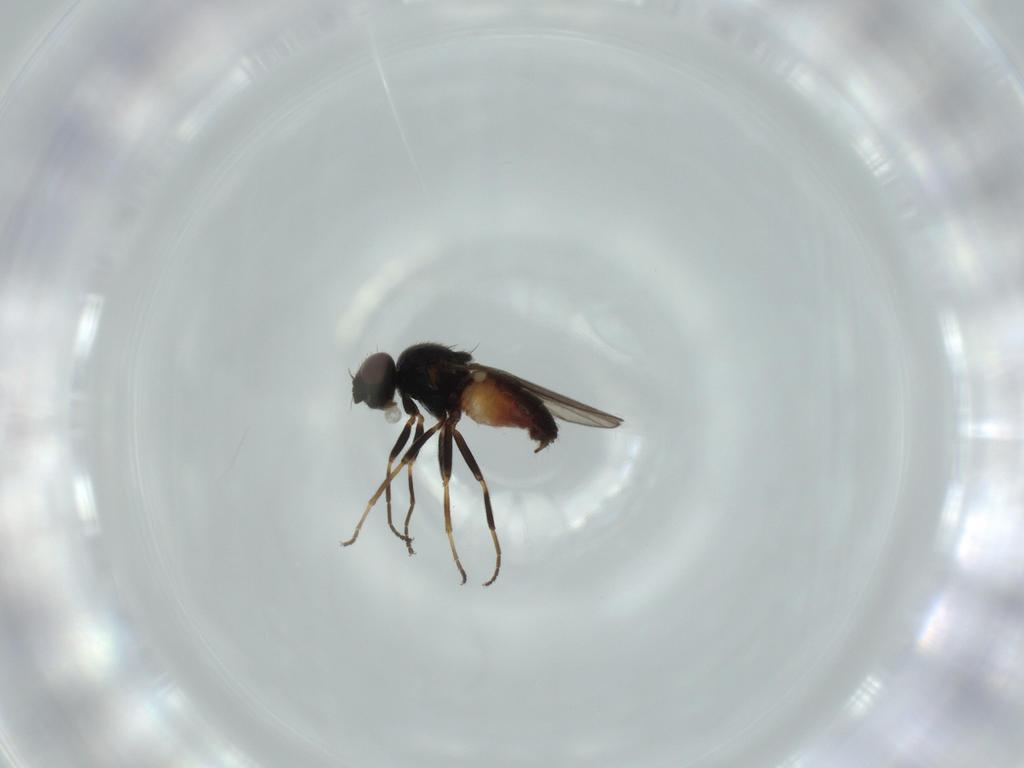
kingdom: Animalia
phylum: Arthropoda
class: Insecta
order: Diptera
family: Chloropidae
